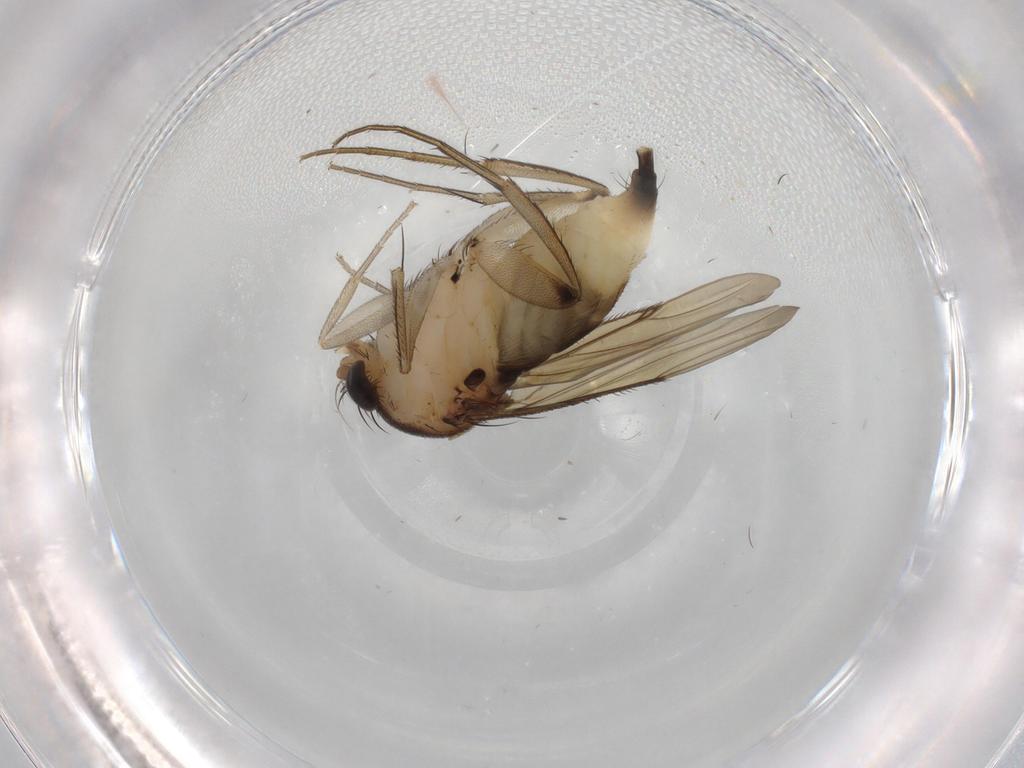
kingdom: Animalia
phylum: Arthropoda
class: Insecta
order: Diptera
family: Sciaridae
